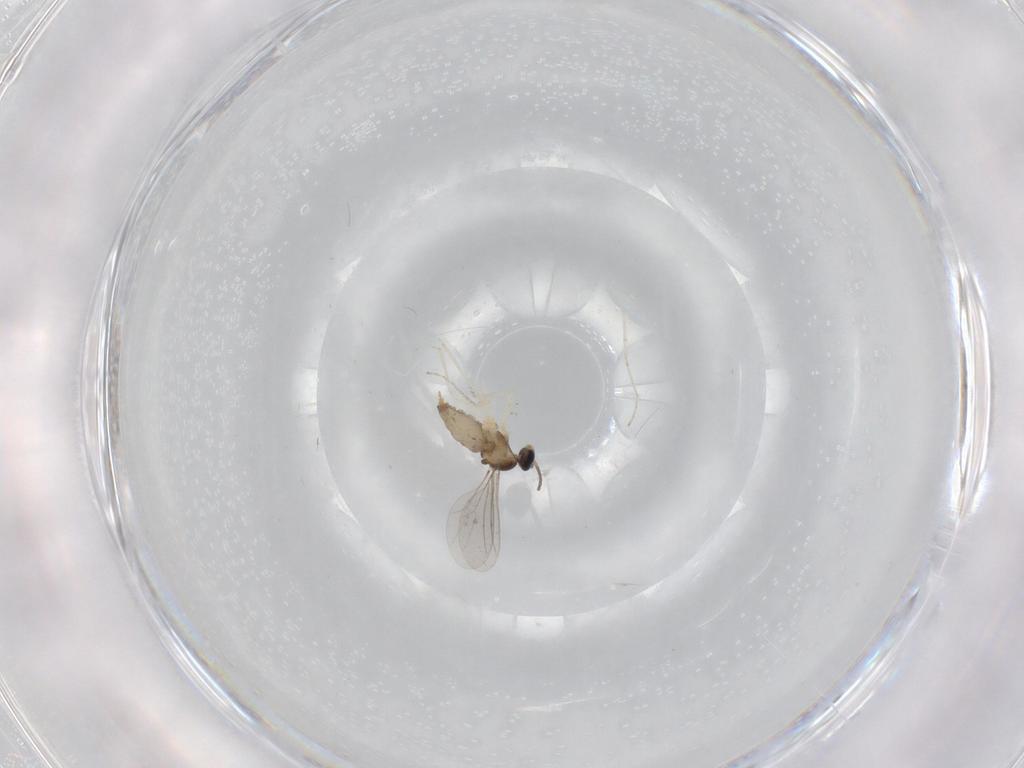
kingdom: Animalia
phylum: Arthropoda
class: Insecta
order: Diptera
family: Cecidomyiidae
